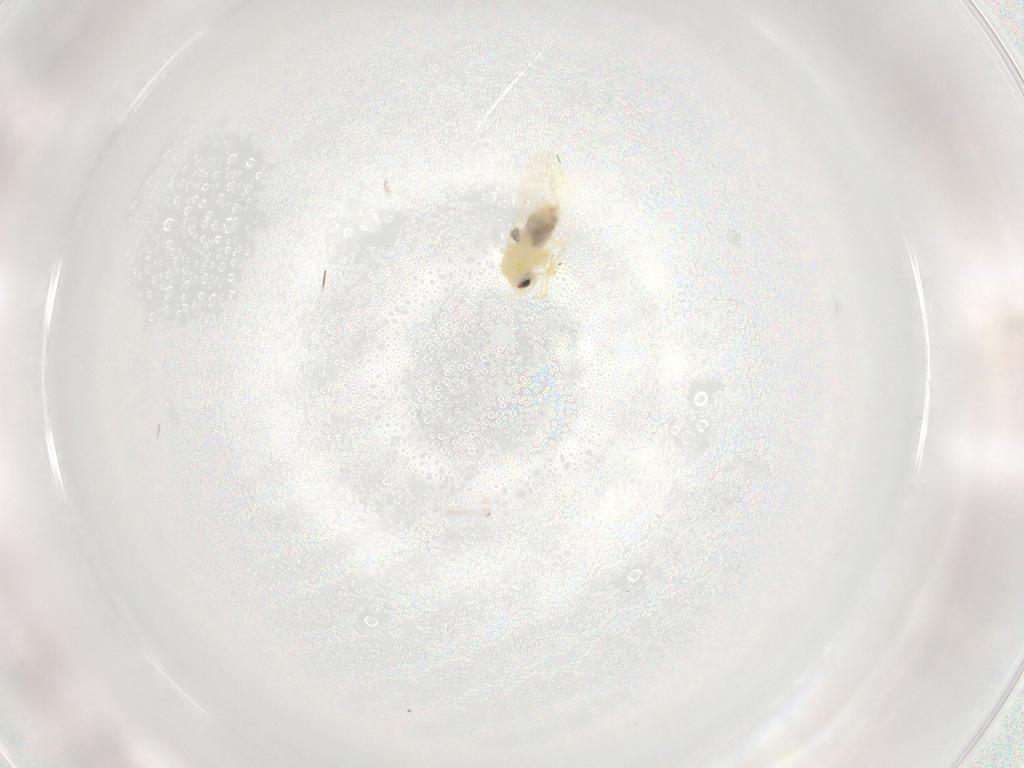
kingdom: Animalia
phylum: Arthropoda
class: Insecta
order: Hemiptera
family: Aleyrodidae
